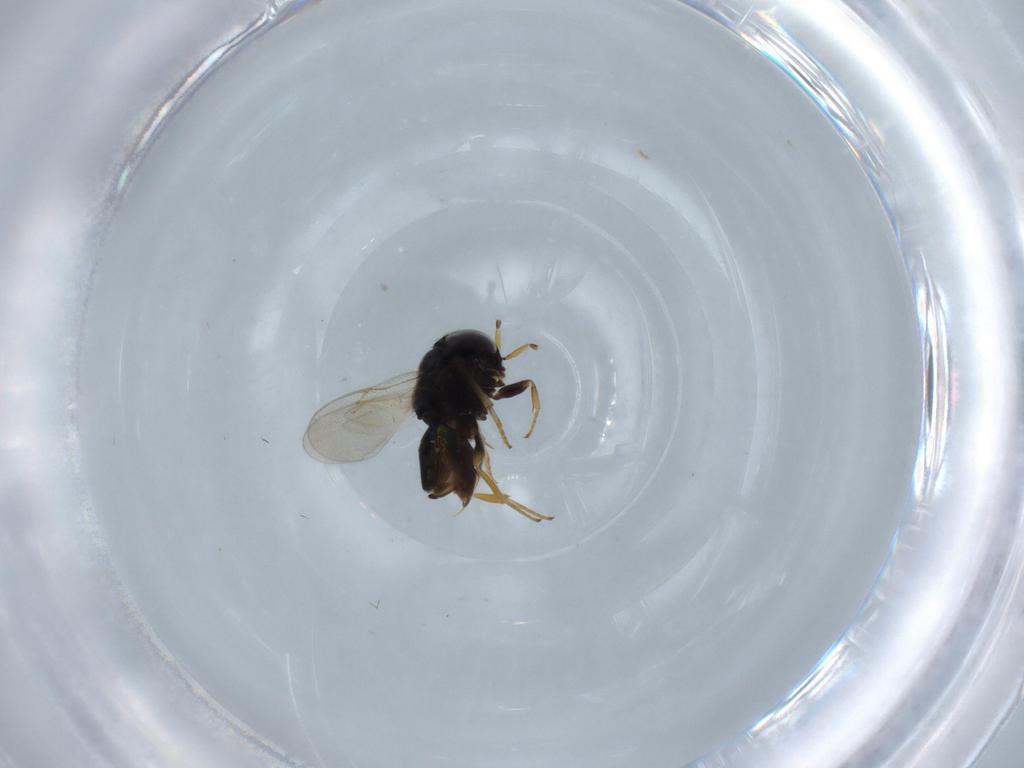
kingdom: Animalia
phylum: Arthropoda
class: Insecta
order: Hymenoptera
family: Encyrtidae
